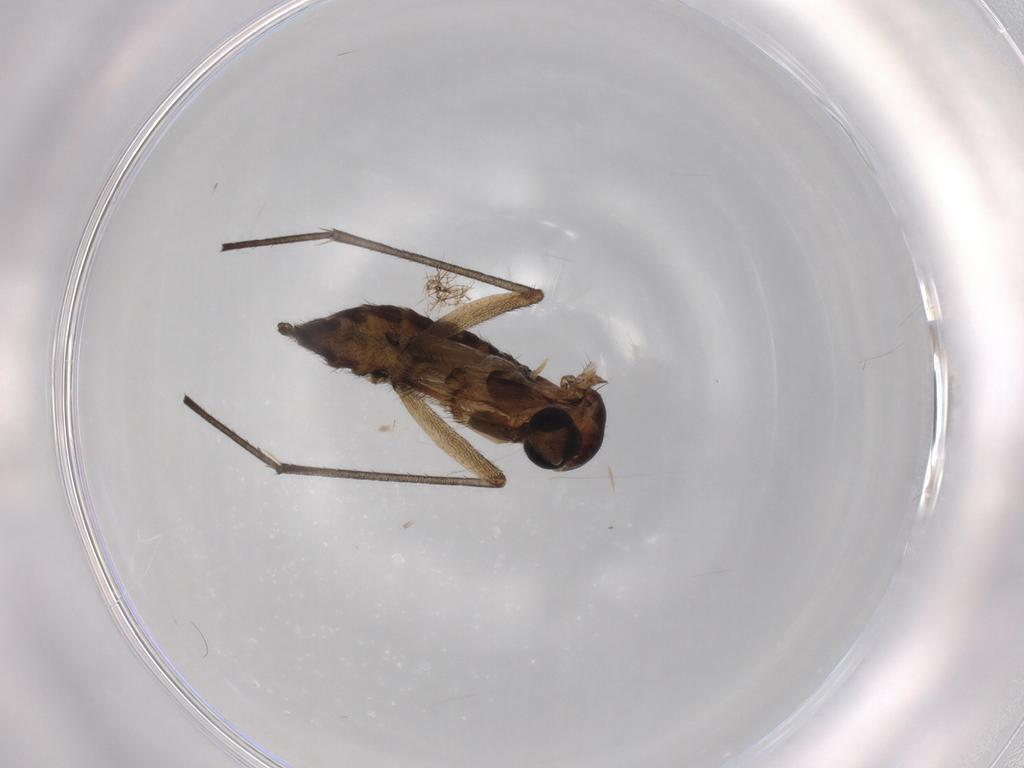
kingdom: Animalia
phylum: Arthropoda
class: Insecta
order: Diptera
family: Sciaridae
